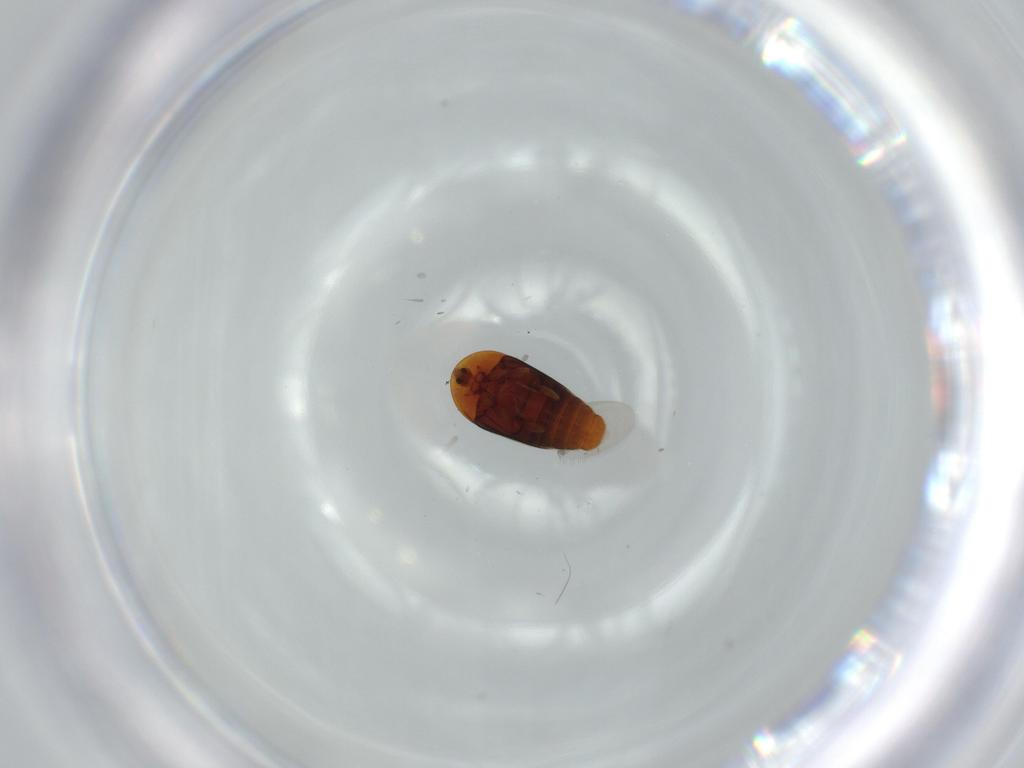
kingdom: Animalia
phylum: Arthropoda
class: Insecta
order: Coleoptera
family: Corylophidae
